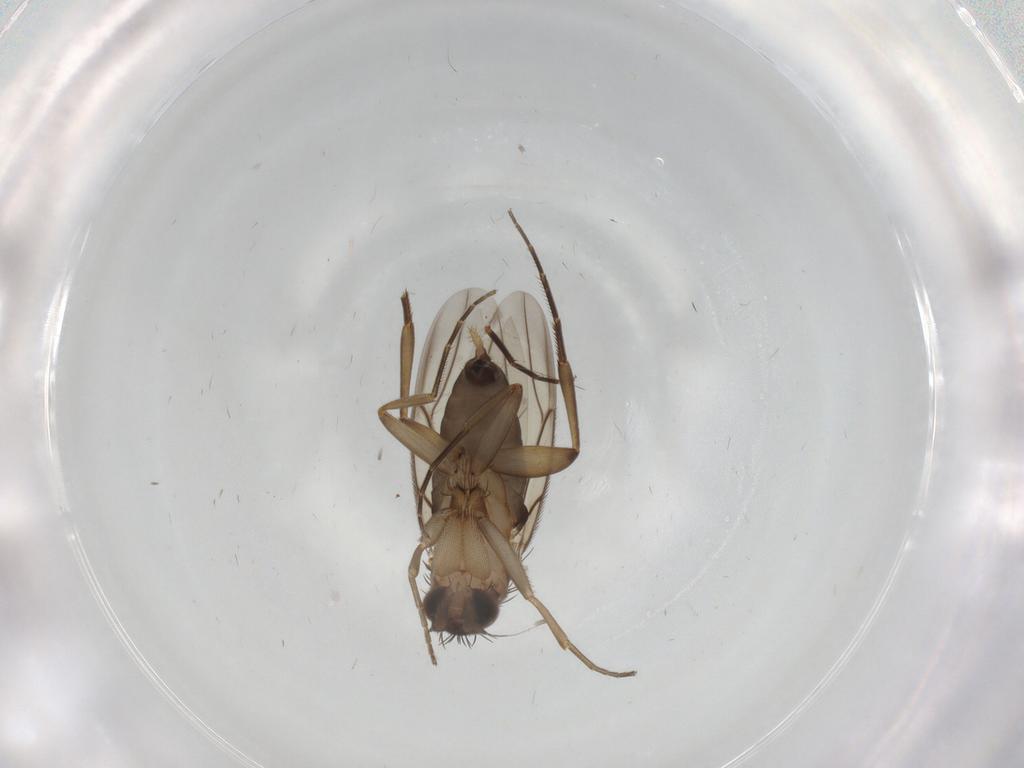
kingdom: Animalia
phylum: Arthropoda
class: Insecta
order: Diptera
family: Phoridae
